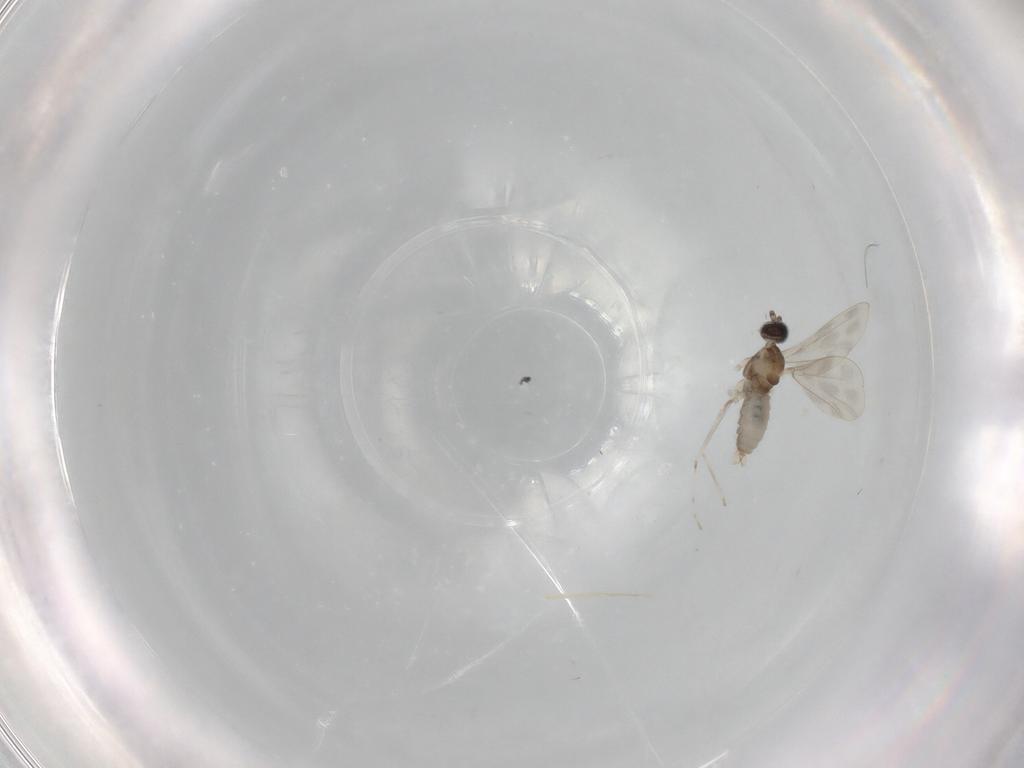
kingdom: Animalia
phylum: Arthropoda
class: Insecta
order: Diptera
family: Cecidomyiidae
